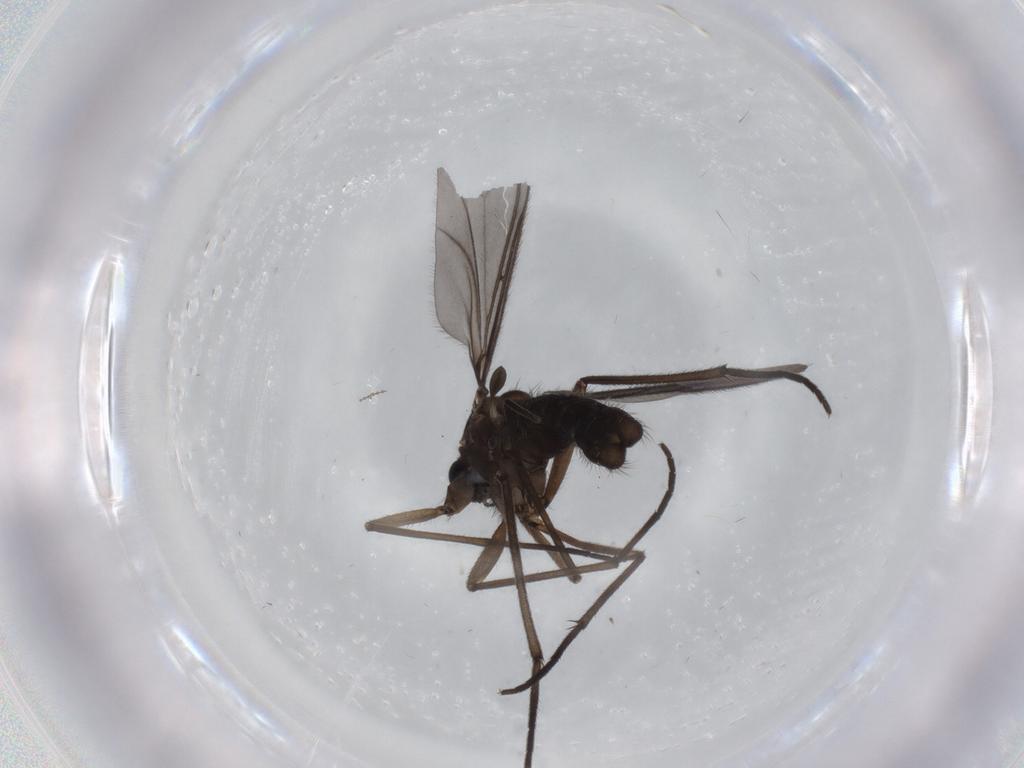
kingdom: Animalia
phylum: Arthropoda
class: Insecta
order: Diptera
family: Sciaridae
